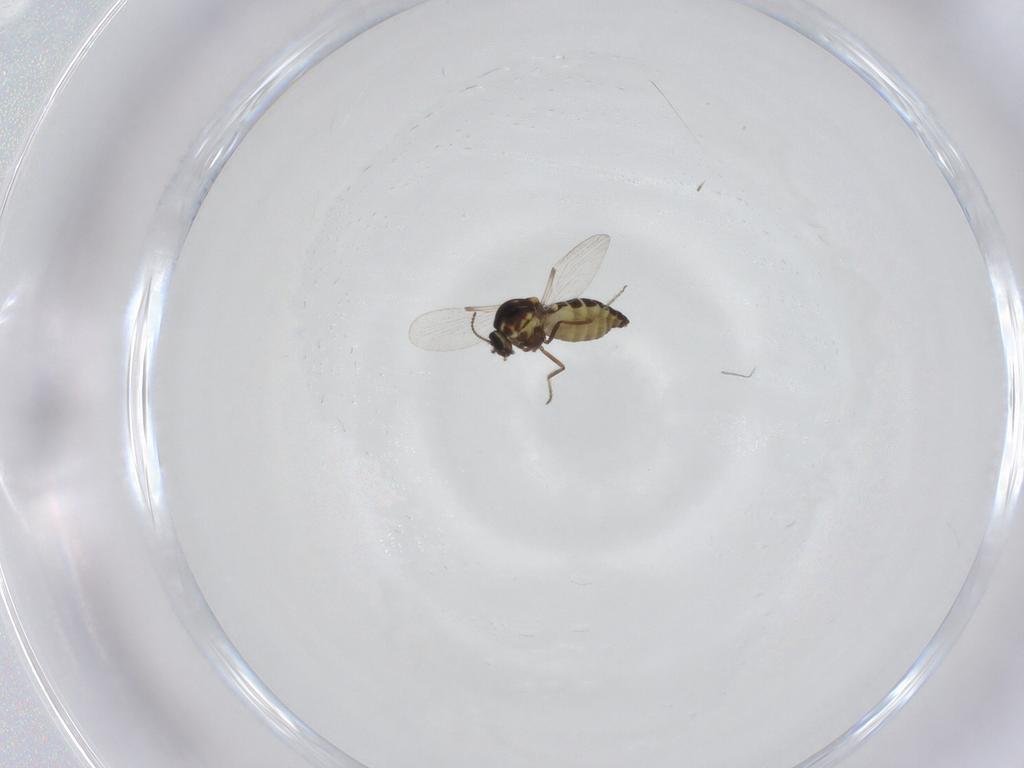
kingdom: Animalia
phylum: Arthropoda
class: Insecta
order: Diptera
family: Ceratopogonidae
